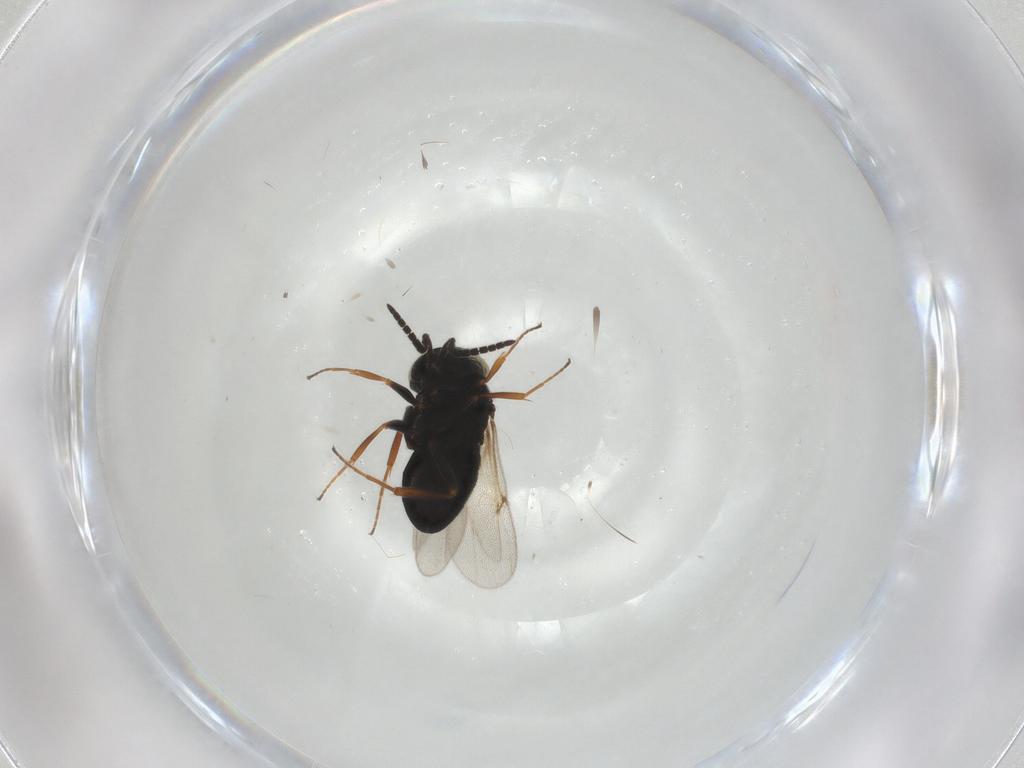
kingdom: Animalia
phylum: Arthropoda
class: Insecta
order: Hymenoptera
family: Scelionidae
